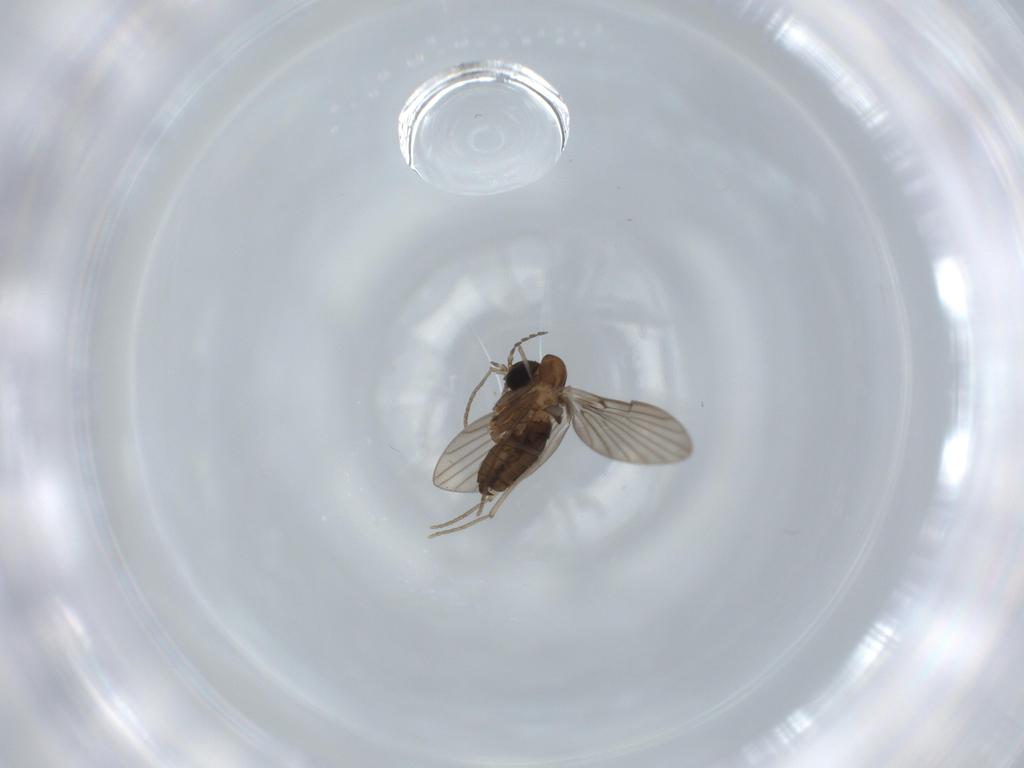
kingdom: Animalia
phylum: Arthropoda
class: Insecta
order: Diptera
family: Psychodidae
